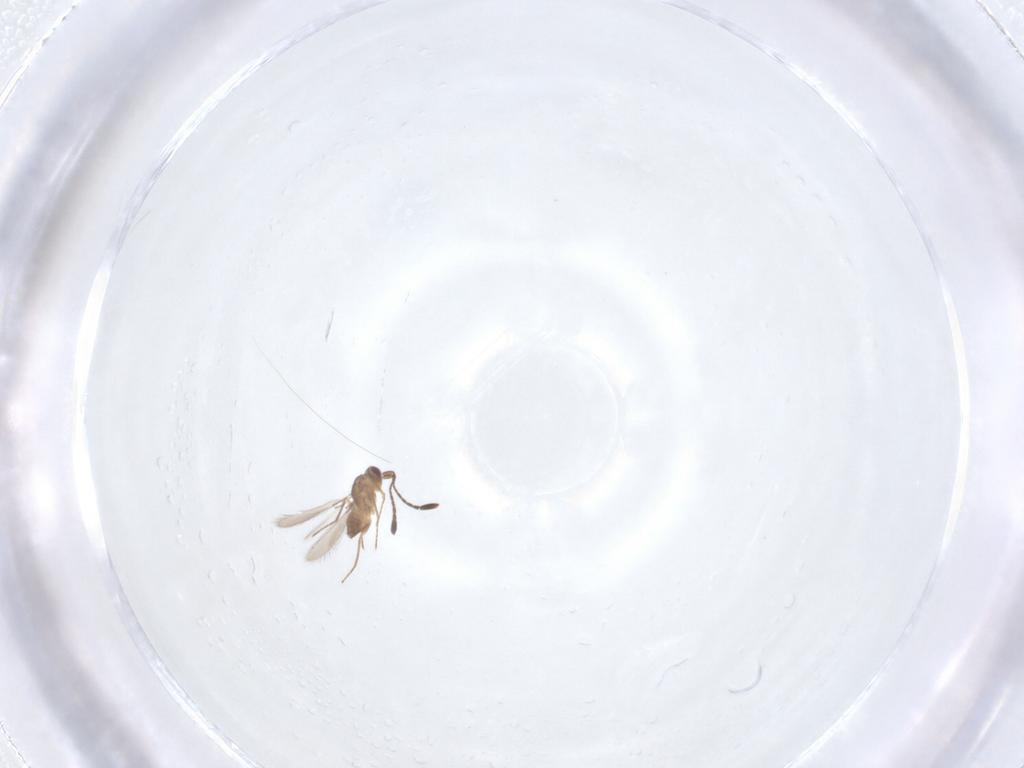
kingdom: Animalia
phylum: Arthropoda
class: Insecta
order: Hymenoptera
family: Mymaridae
